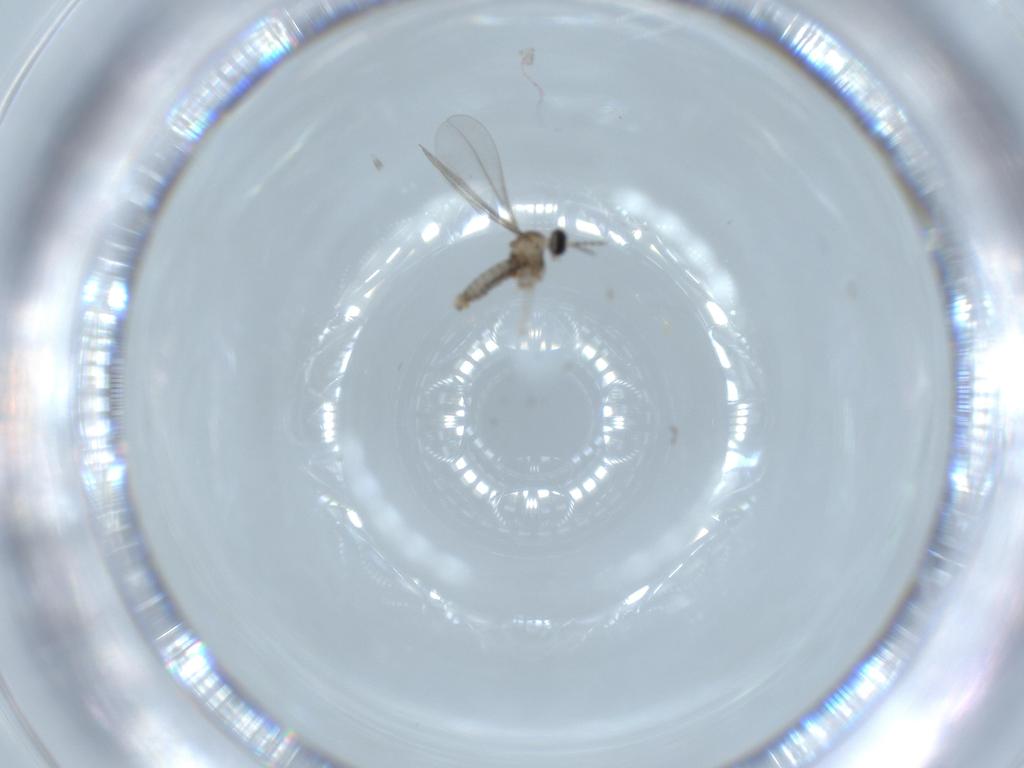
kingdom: Animalia
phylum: Arthropoda
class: Insecta
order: Diptera
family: Cecidomyiidae
